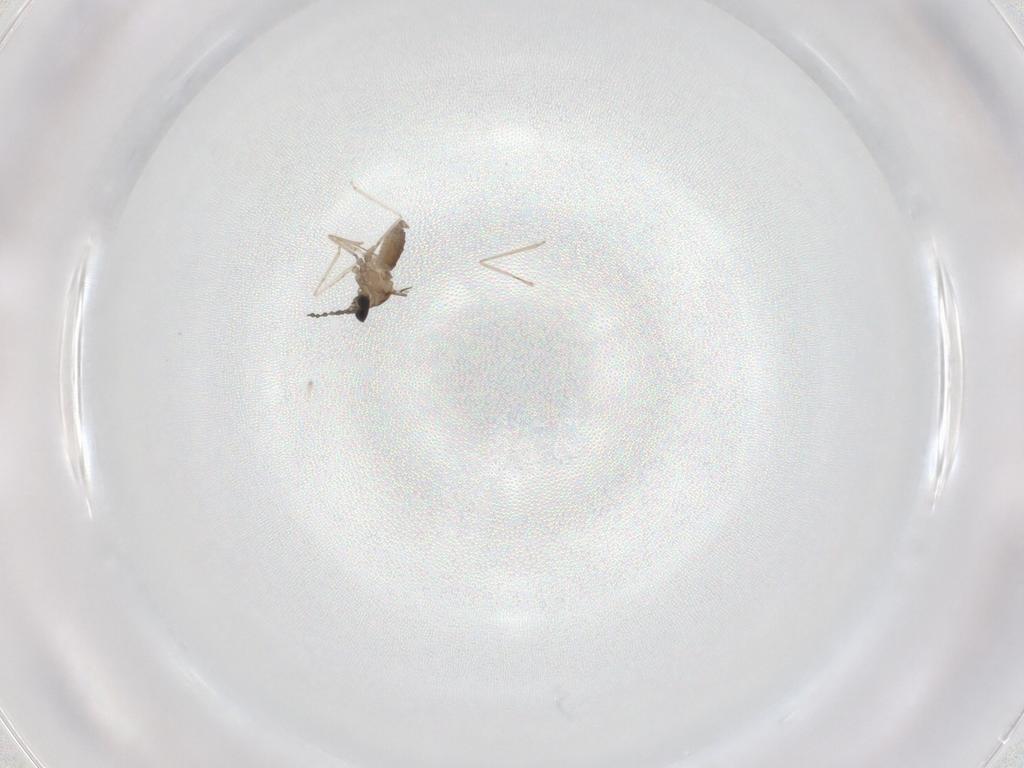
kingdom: Animalia
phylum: Arthropoda
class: Insecta
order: Diptera
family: Cecidomyiidae
